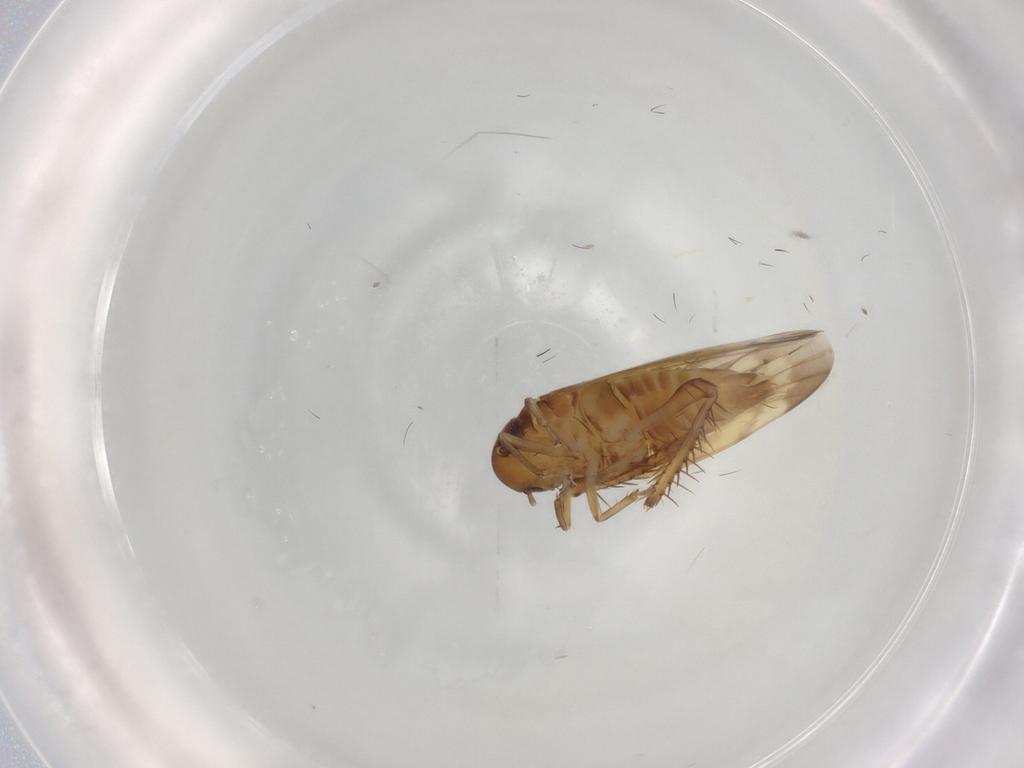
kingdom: Animalia
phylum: Arthropoda
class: Insecta
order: Hemiptera
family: Cicadellidae
